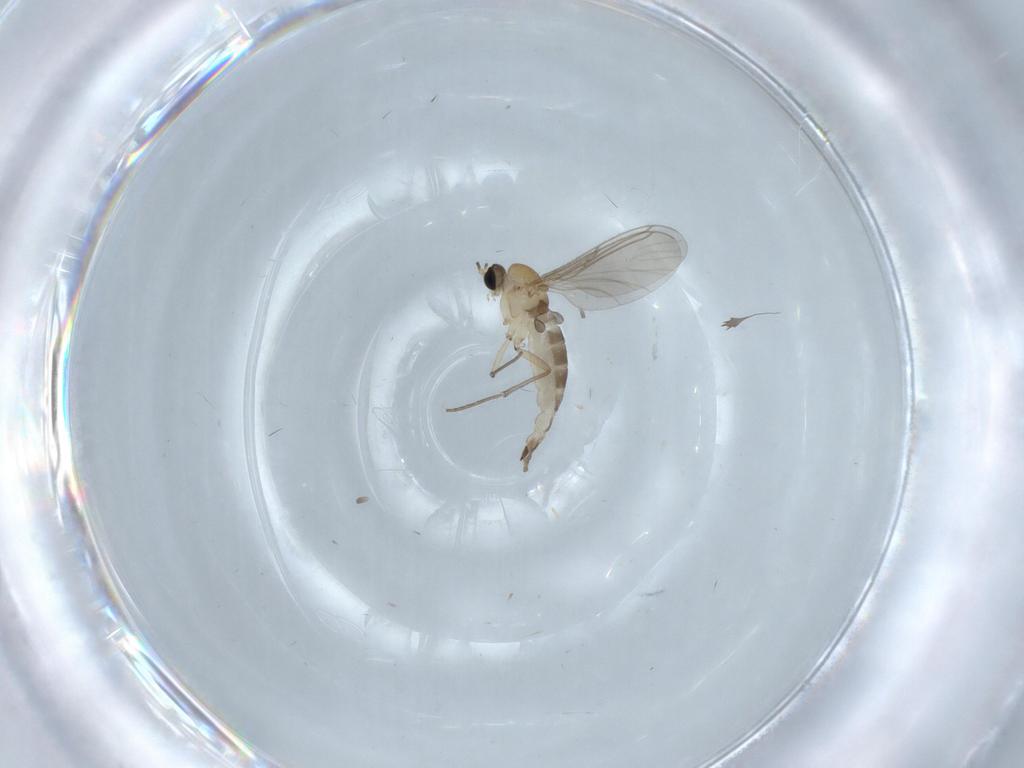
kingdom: Animalia
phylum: Arthropoda
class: Insecta
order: Diptera
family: Sciaridae
